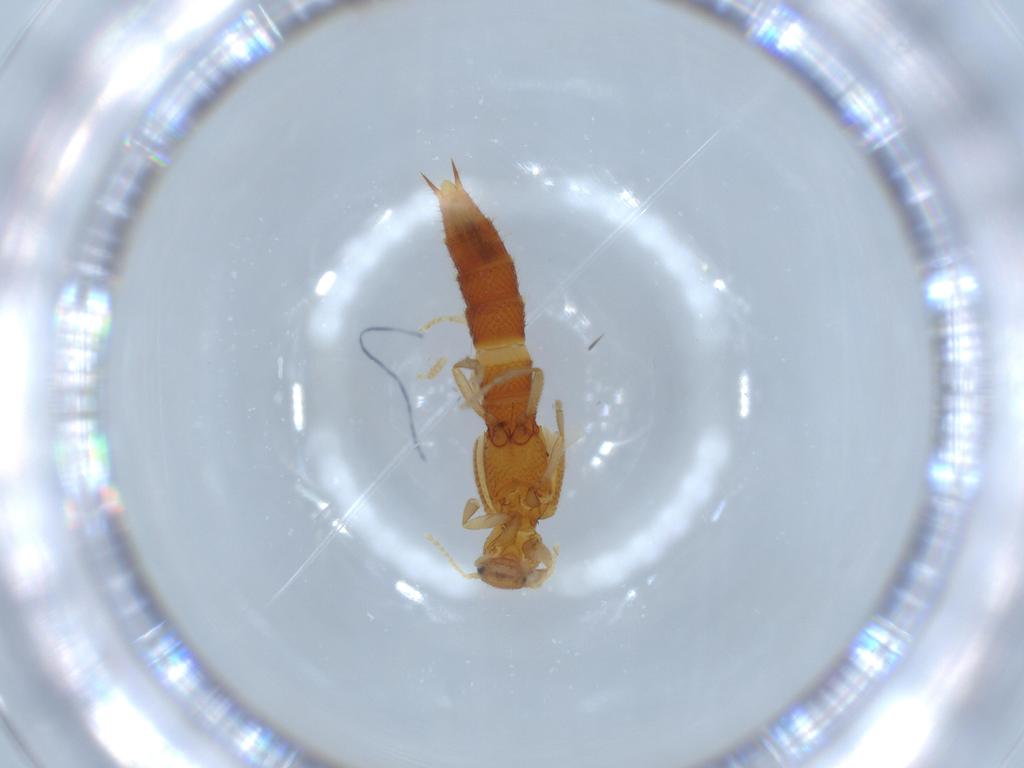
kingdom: Animalia
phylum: Arthropoda
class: Insecta
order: Coleoptera
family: Staphylinidae
